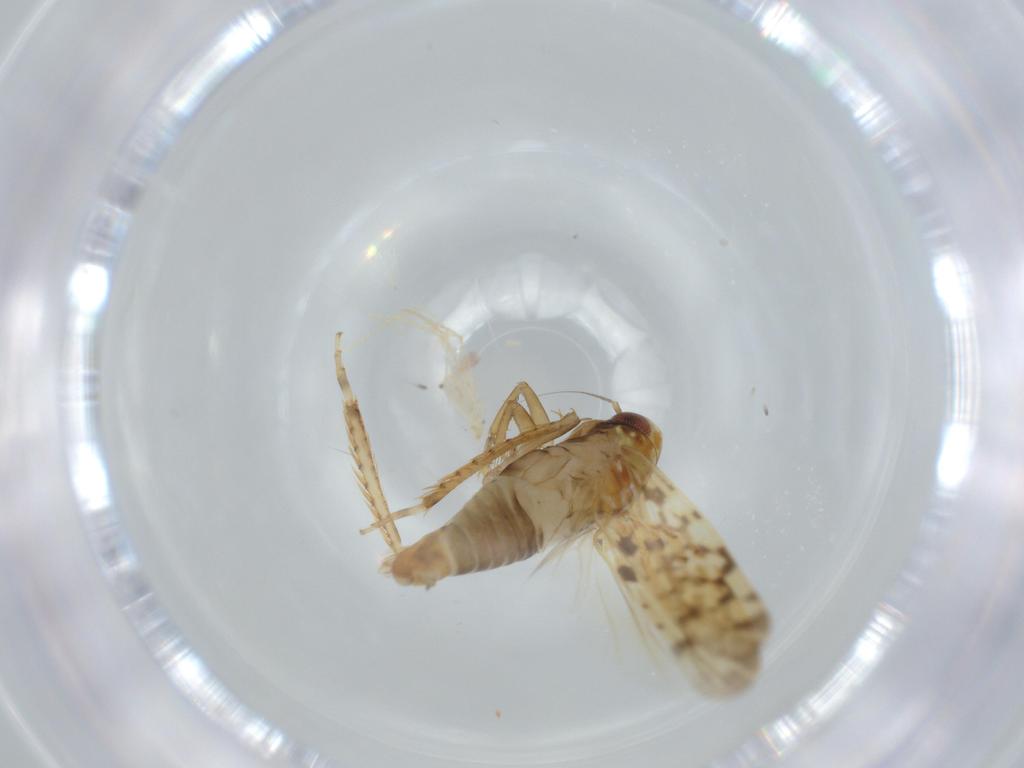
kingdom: Animalia
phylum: Arthropoda
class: Insecta
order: Hemiptera
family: Cicadellidae
